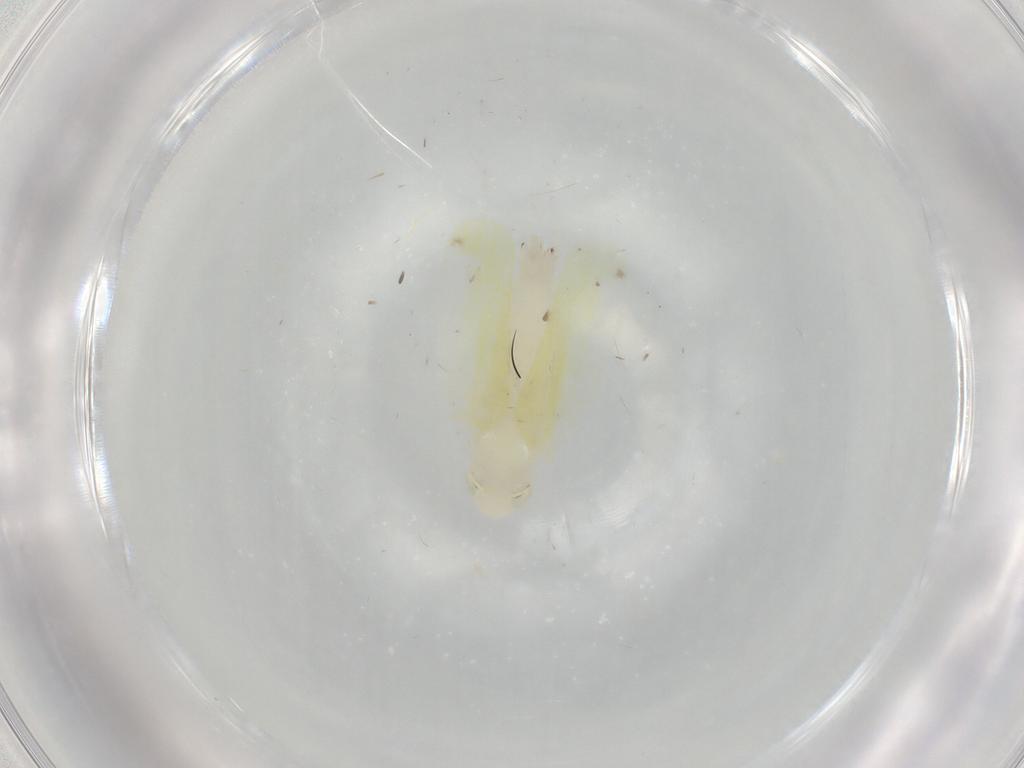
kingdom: Animalia
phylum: Arthropoda
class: Insecta
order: Hemiptera
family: Cicadellidae
